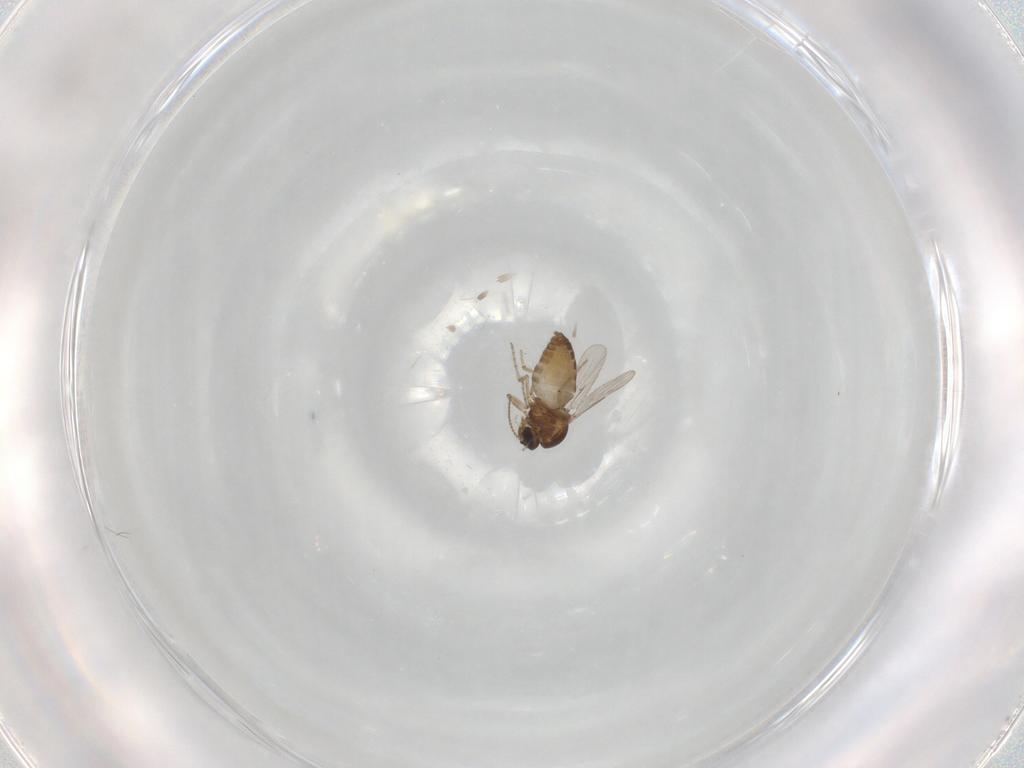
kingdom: Animalia
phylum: Arthropoda
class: Insecta
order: Diptera
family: Ceratopogonidae
